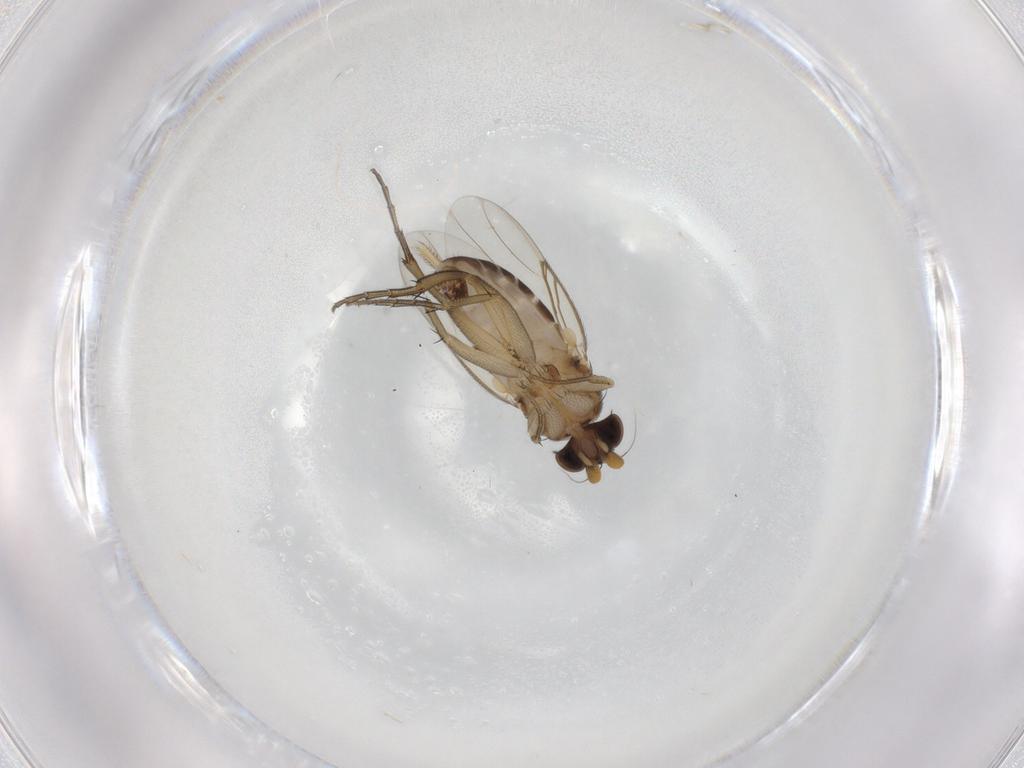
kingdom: Animalia
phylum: Arthropoda
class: Insecta
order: Diptera
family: Phoridae
